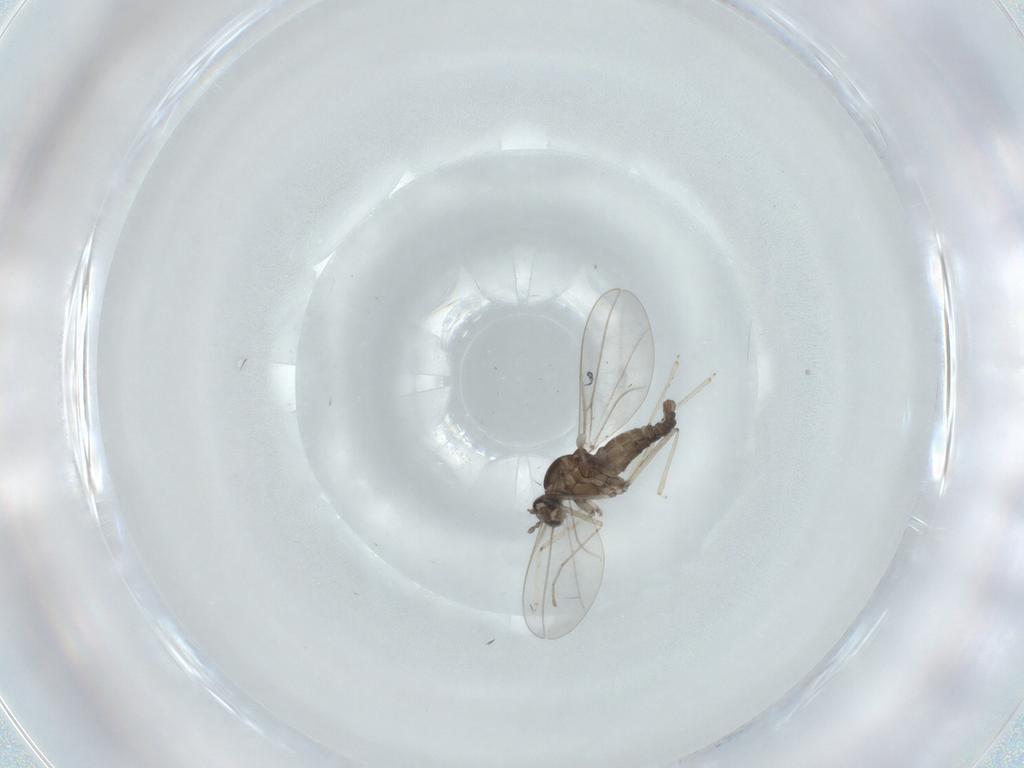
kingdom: Animalia
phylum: Arthropoda
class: Insecta
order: Diptera
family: Cecidomyiidae
